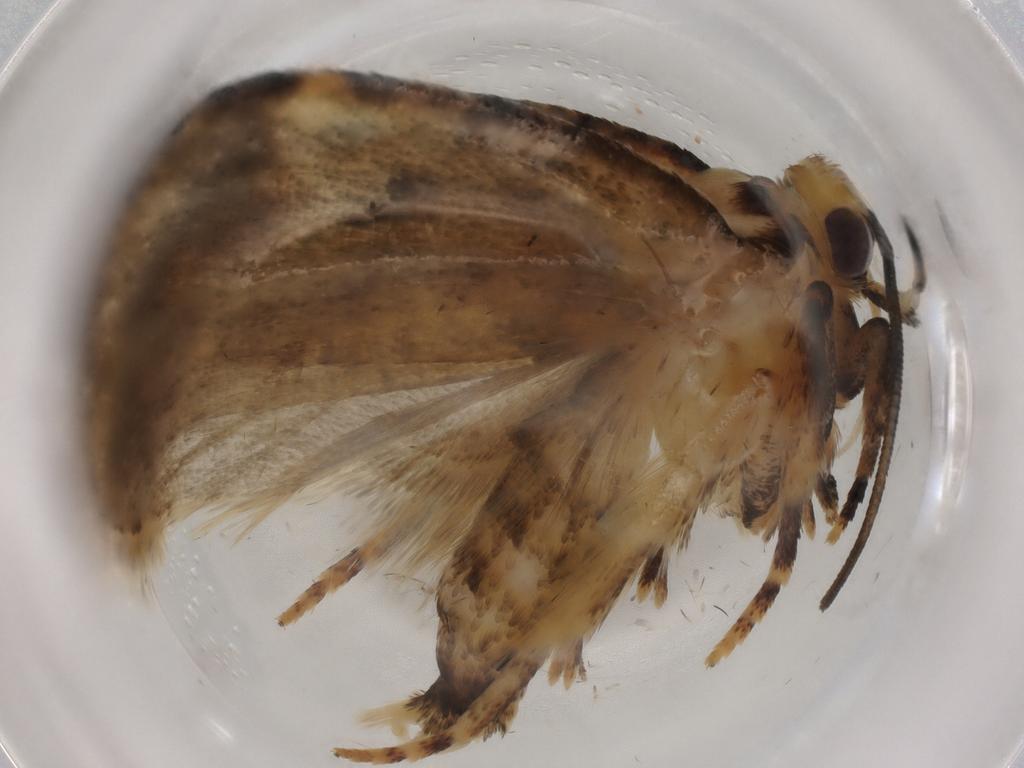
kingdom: Animalia
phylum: Arthropoda
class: Insecta
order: Lepidoptera
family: Depressariidae
